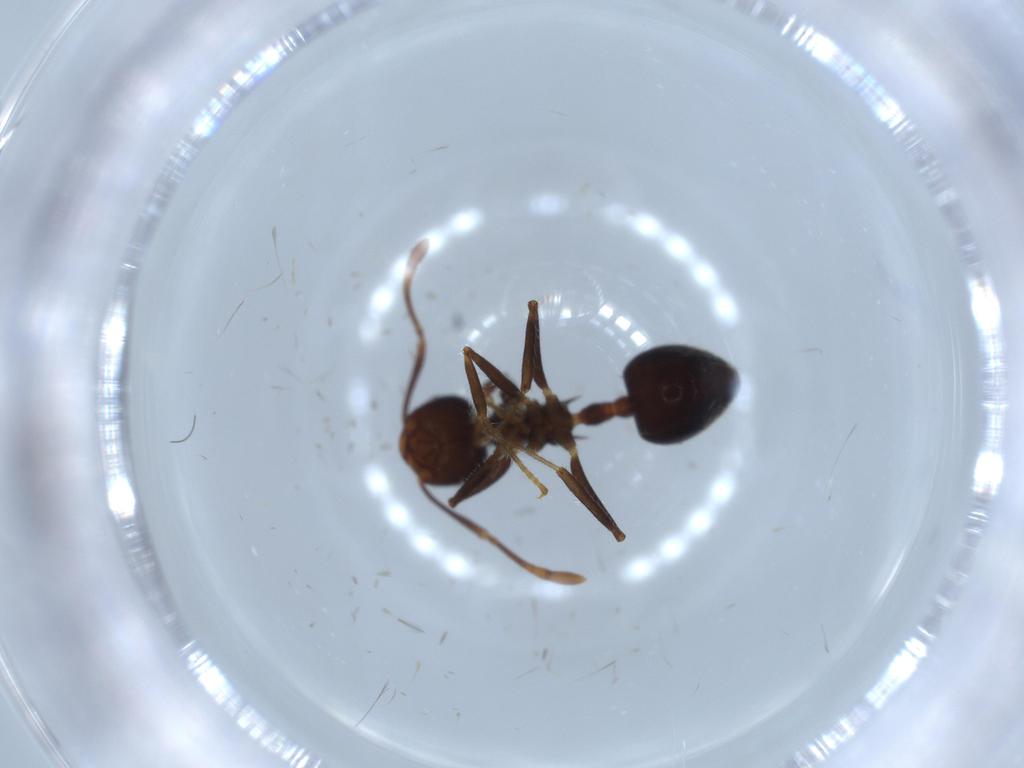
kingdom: Animalia
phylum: Arthropoda
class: Insecta
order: Hymenoptera
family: Formicidae
